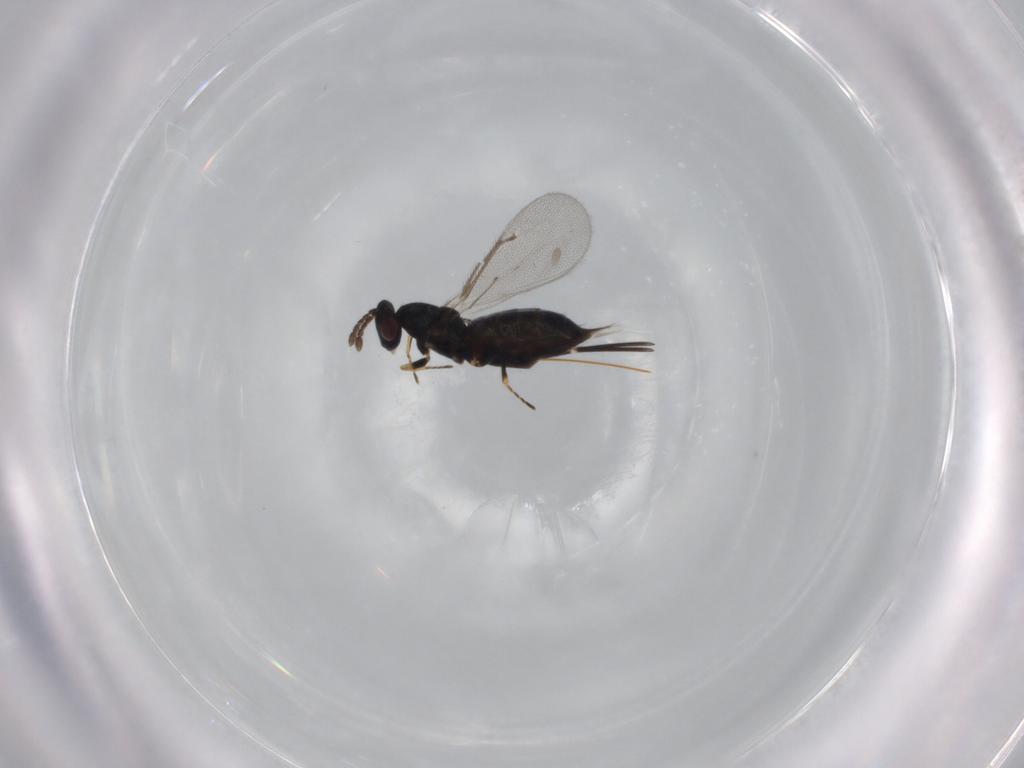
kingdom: Animalia
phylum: Arthropoda
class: Insecta
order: Hymenoptera
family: Eulophidae
